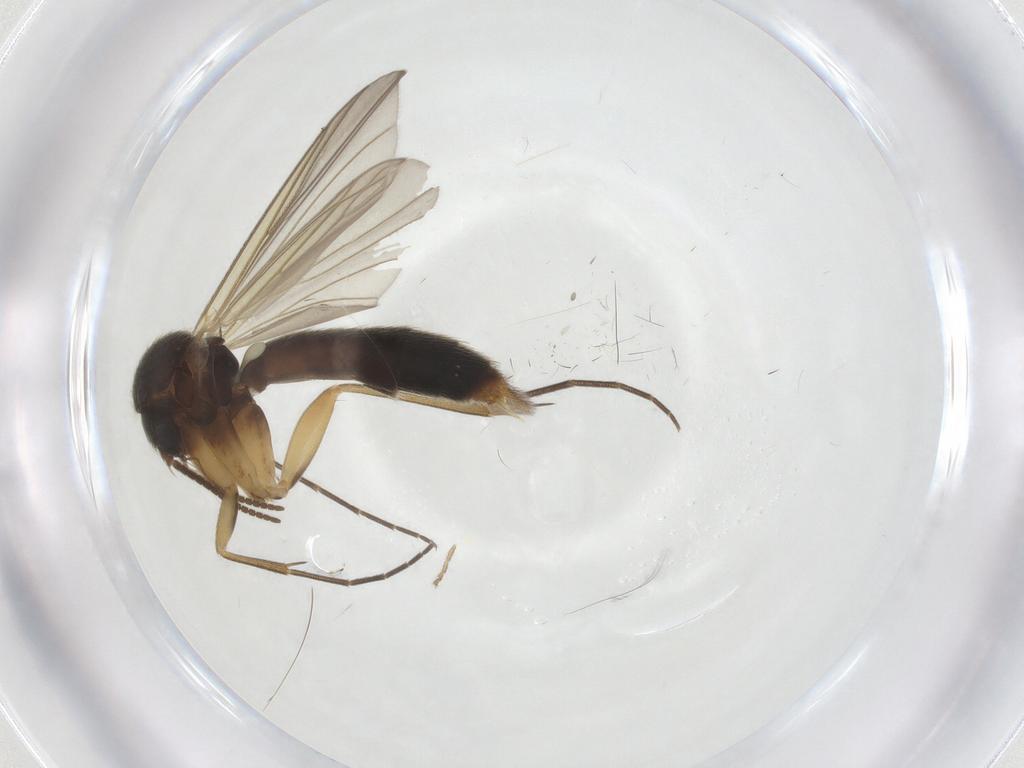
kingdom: Animalia
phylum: Arthropoda
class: Insecta
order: Diptera
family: Ceratopogonidae
